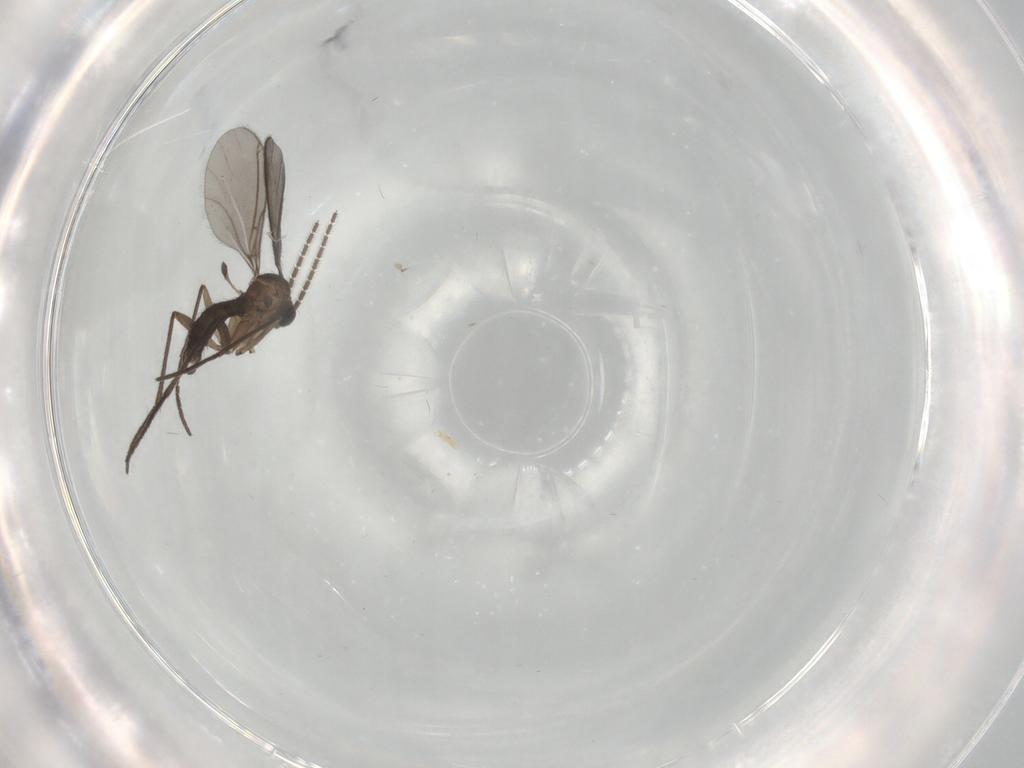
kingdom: Animalia
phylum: Arthropoda
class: Insecta
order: Diptera
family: Sciaridae
